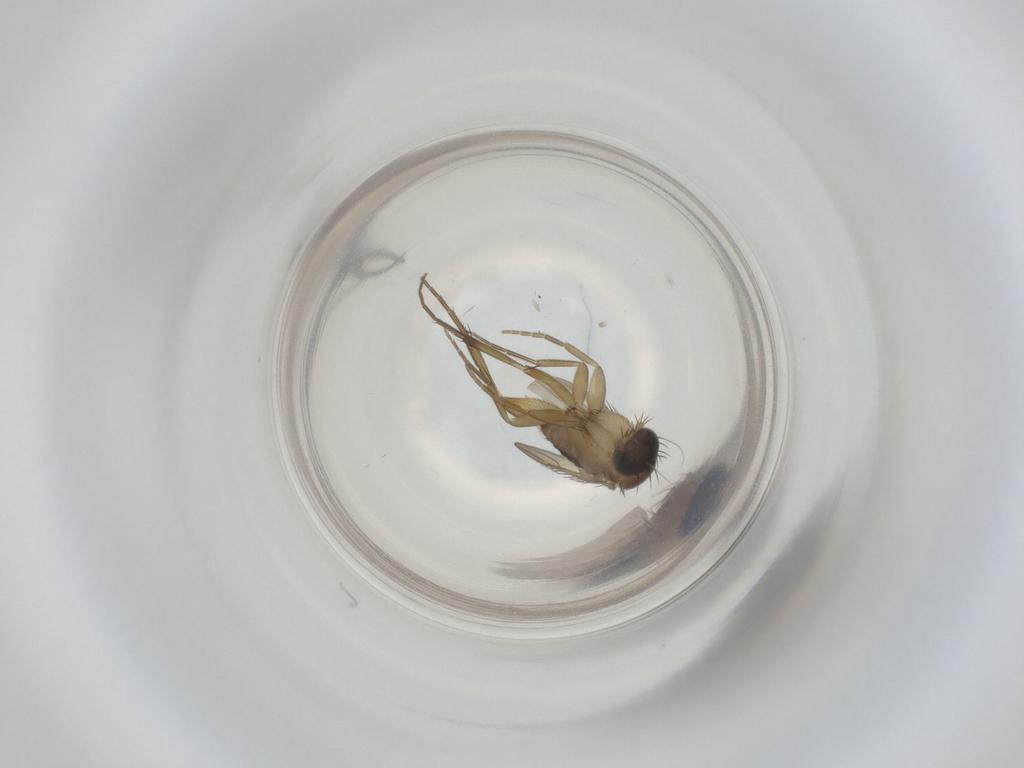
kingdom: Animalia
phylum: Arthropoda
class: Insecta
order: Diptera
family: Phoridae
